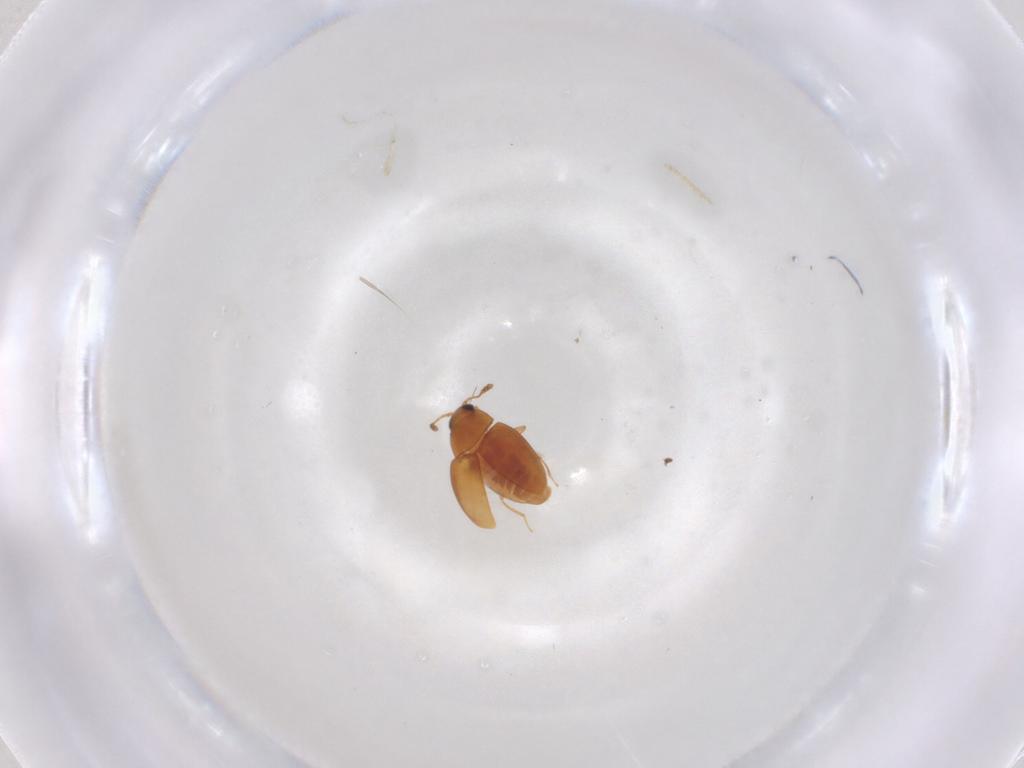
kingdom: Animalia
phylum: Arthropoda
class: Insecta
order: Coleoptera
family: Cryptophagidae
